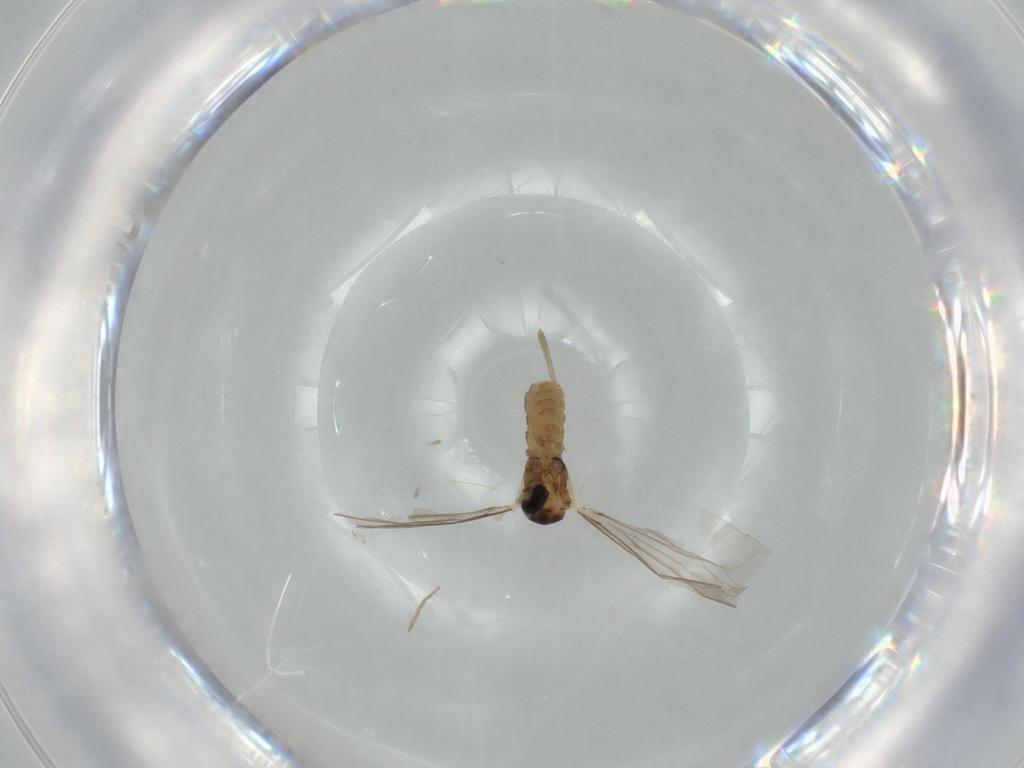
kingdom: Animalia
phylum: Arthropoda
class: Insecta
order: Diptera
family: Cecidomyiidae
